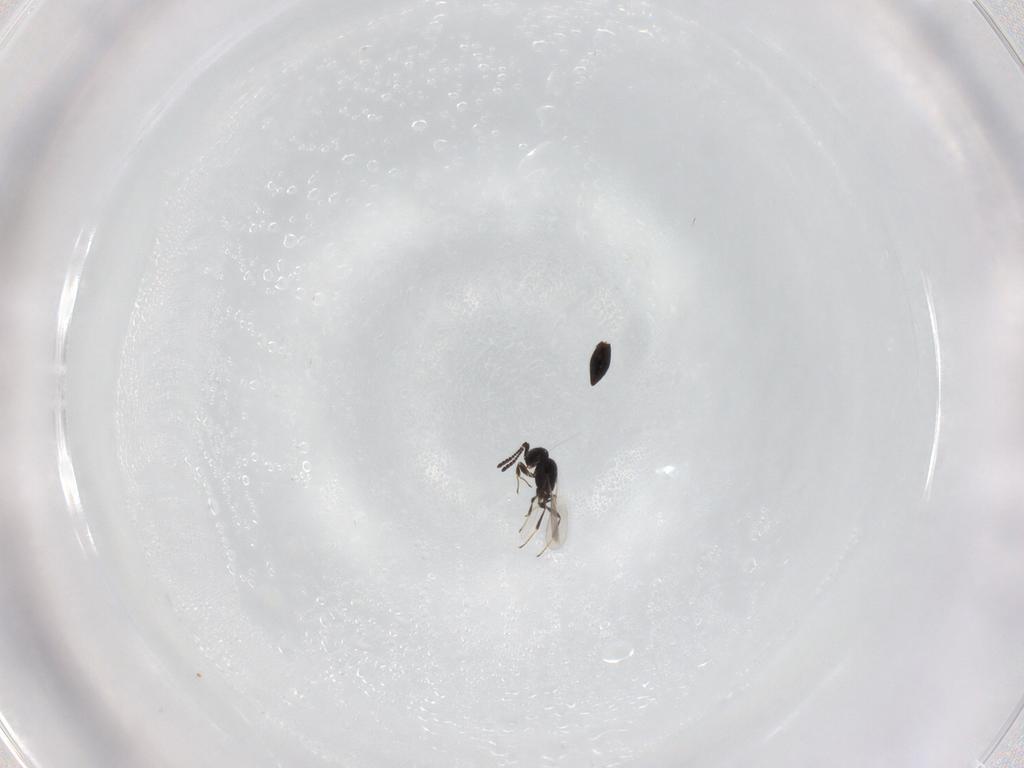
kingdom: Animalia
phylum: Arthropoda
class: Insecta
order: Hymenoptera
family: Scelionidae
